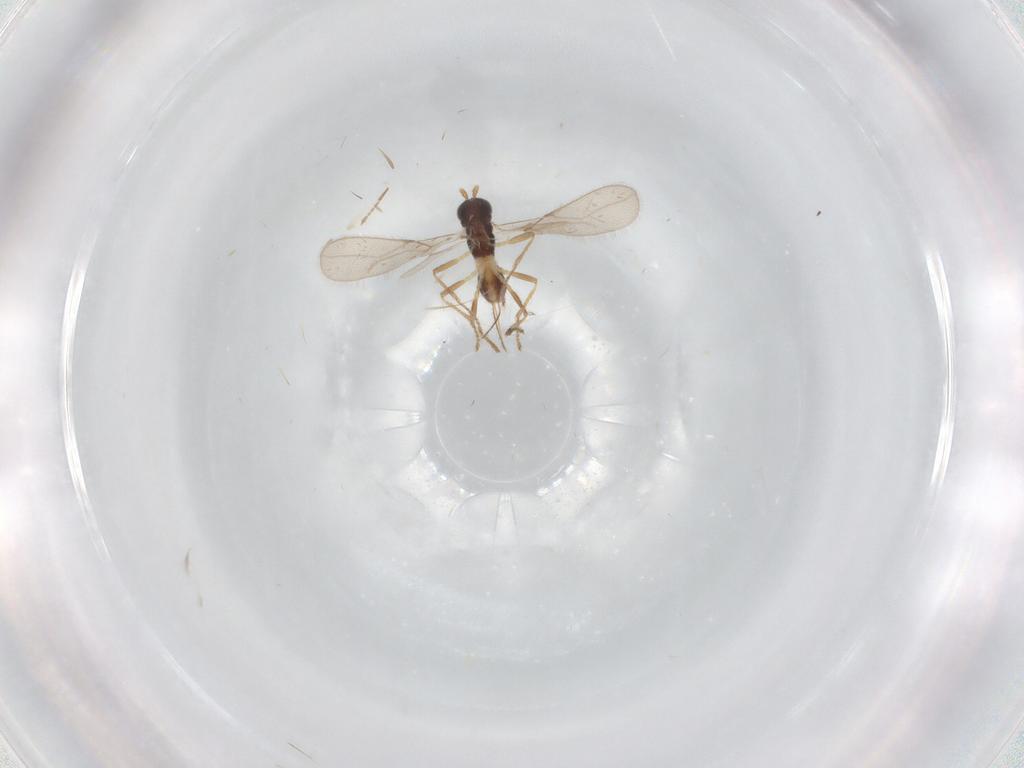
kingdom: Animalia
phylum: Arthropoda
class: Insecta
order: Hymenoptera
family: Braconidae
